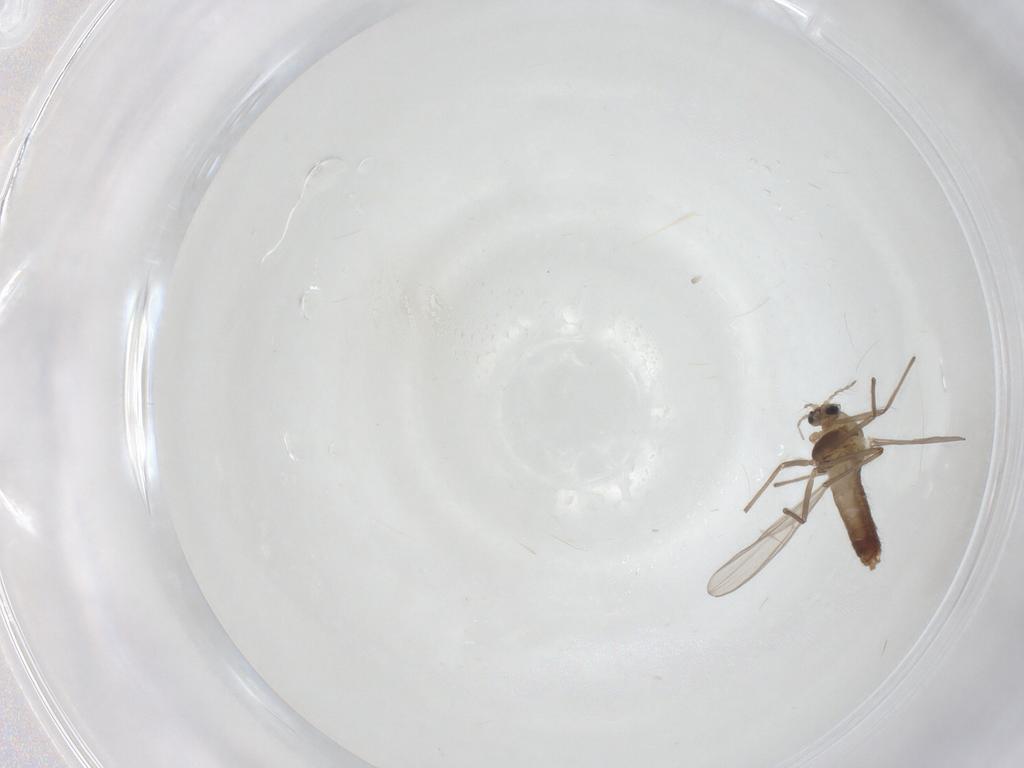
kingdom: Animalia
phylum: Arthropoda
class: Insecta
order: Diptera
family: Chironomidae
